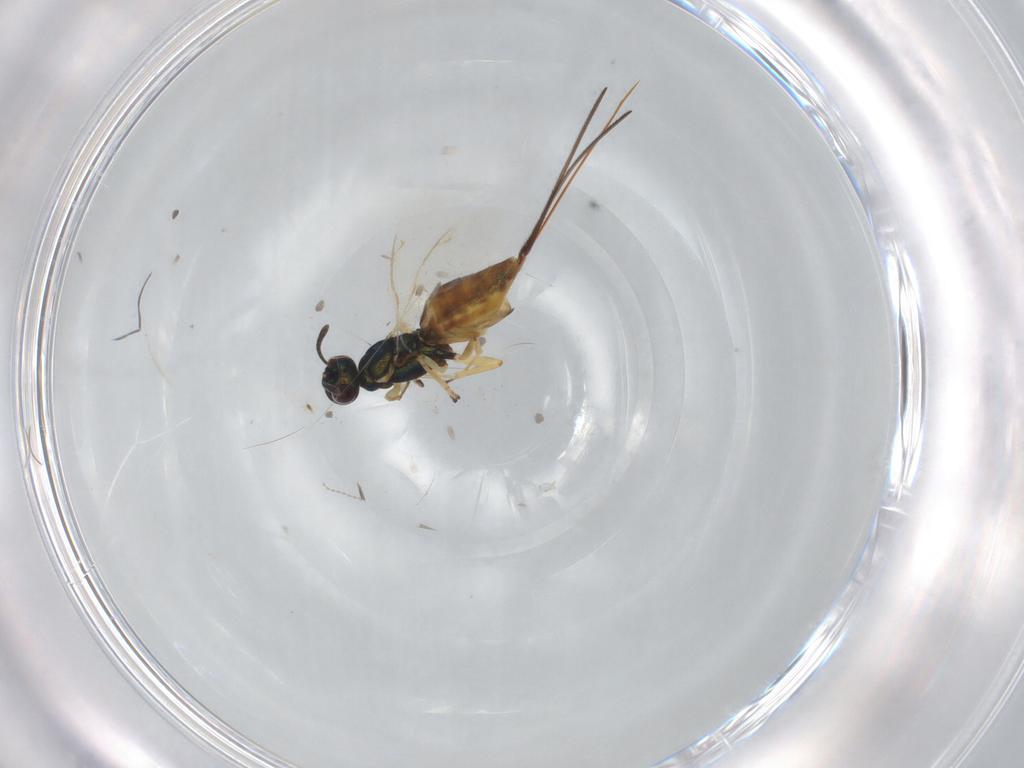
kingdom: Animalia
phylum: Arthropoda
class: Insecta
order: Hymenoptera
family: Eupelmidae
